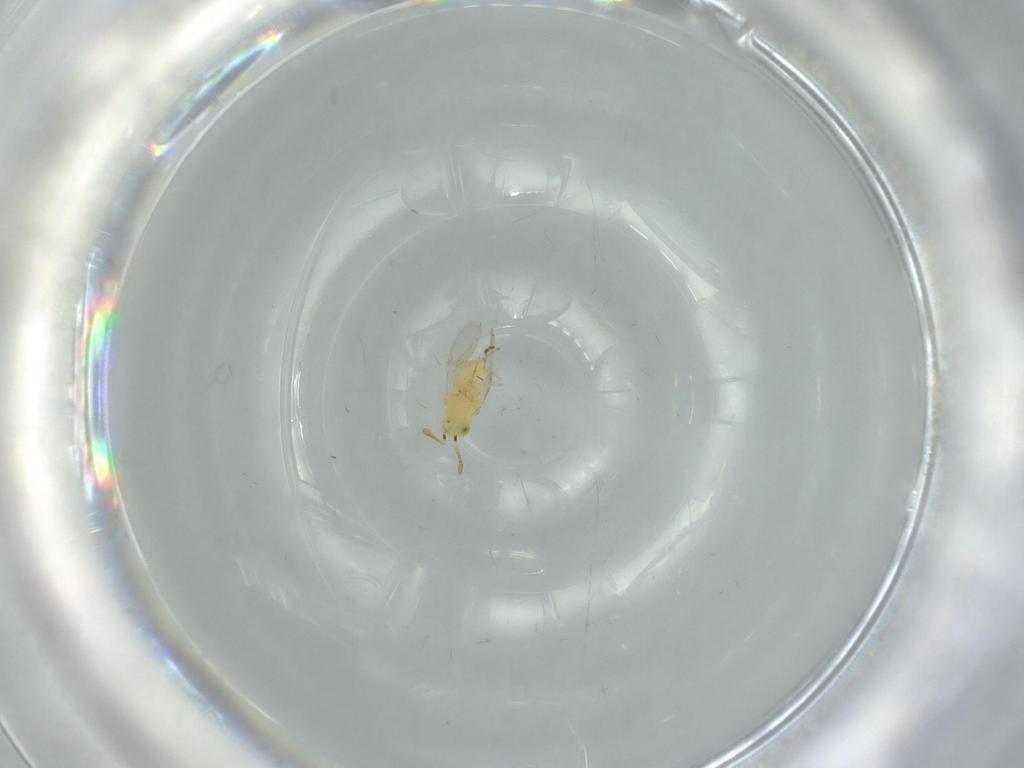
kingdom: Animalia
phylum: Arthropoda
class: Insecta
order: Hymenoptera
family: Encyrtidae
